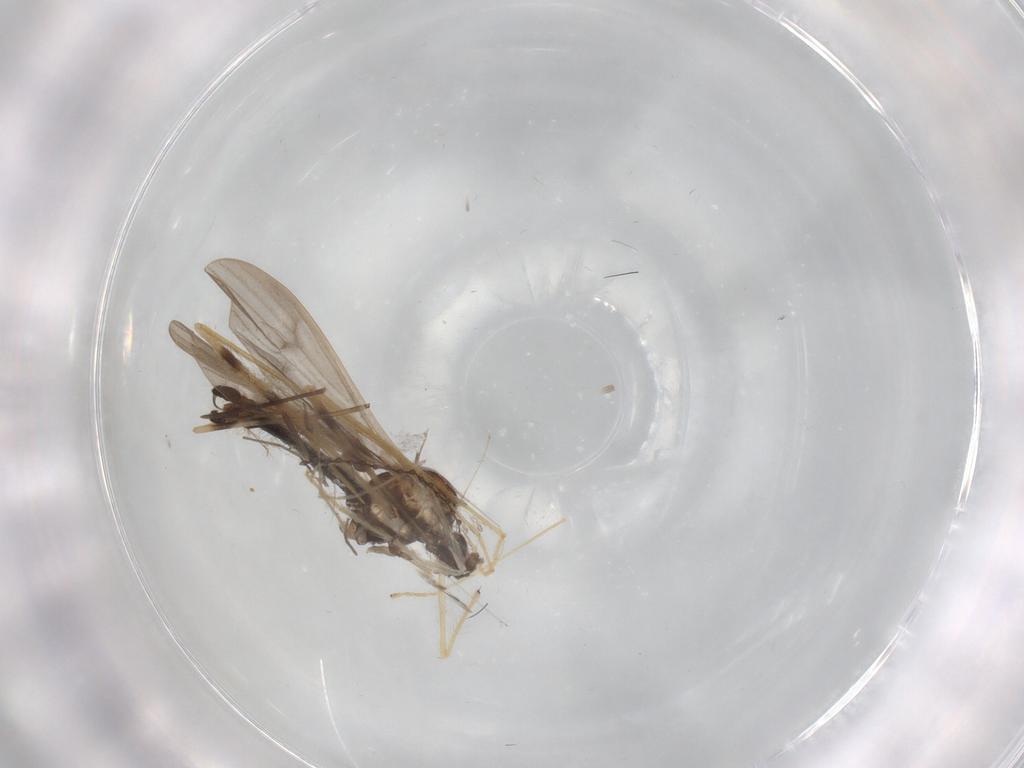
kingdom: Animalia
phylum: Arthropoda
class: Insecta
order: Diptera
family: Limoniidae
